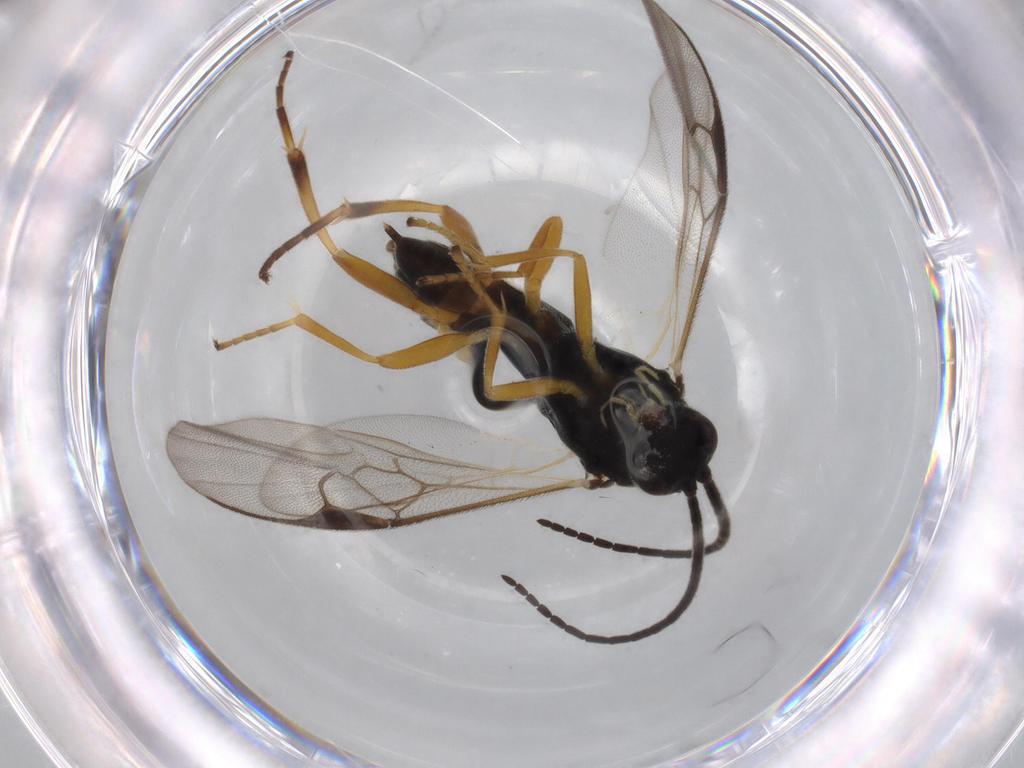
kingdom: Animalia
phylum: Arthropoda
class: Insecta
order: Hymenoptera
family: Braconidae
